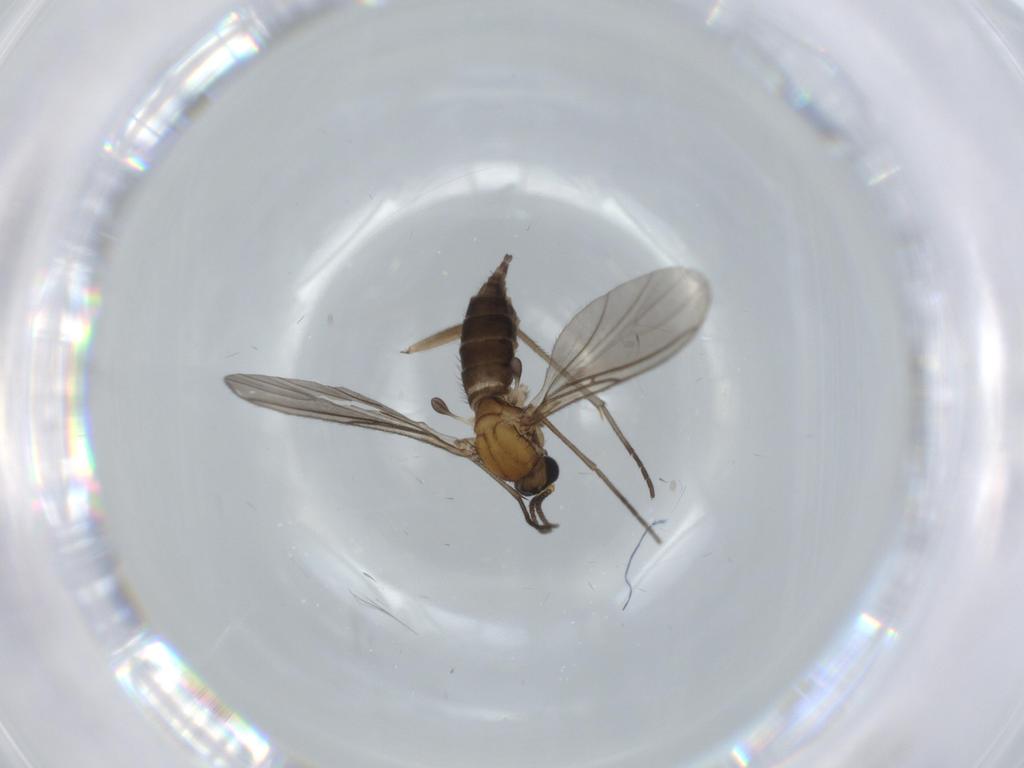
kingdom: Animalia
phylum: Arthropoda
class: Insecta
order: Diptera
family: Sciaridae
